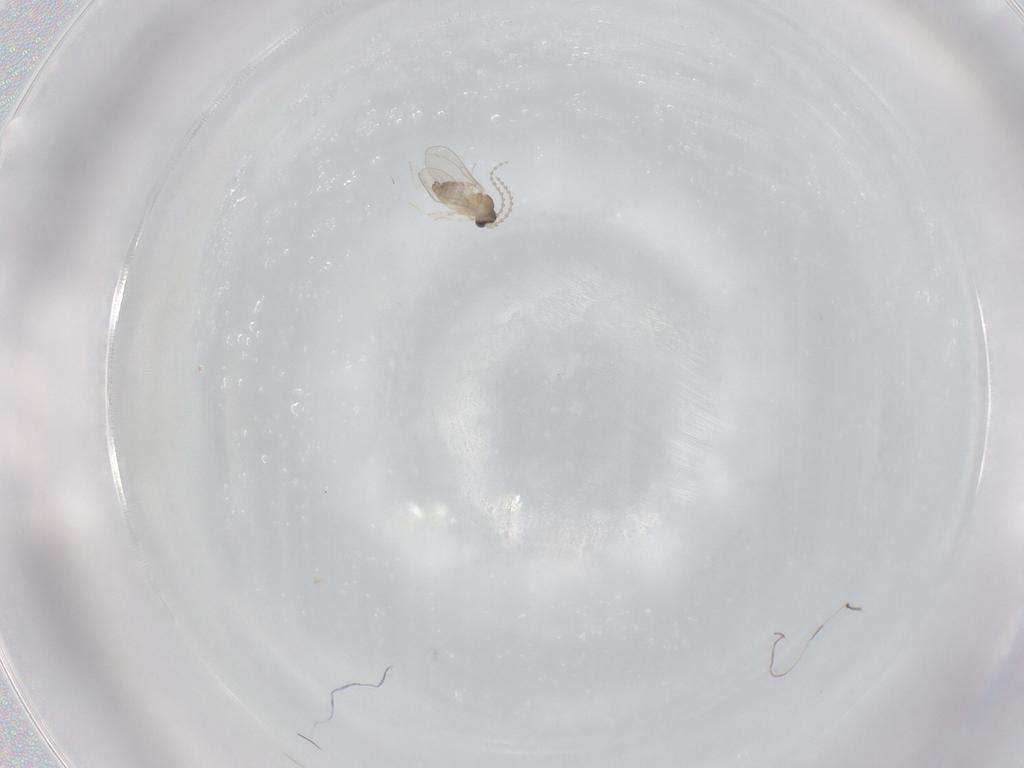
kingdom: Animalia
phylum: Arthropoda
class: Insecta
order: Diptera
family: Cecidomyiidae
